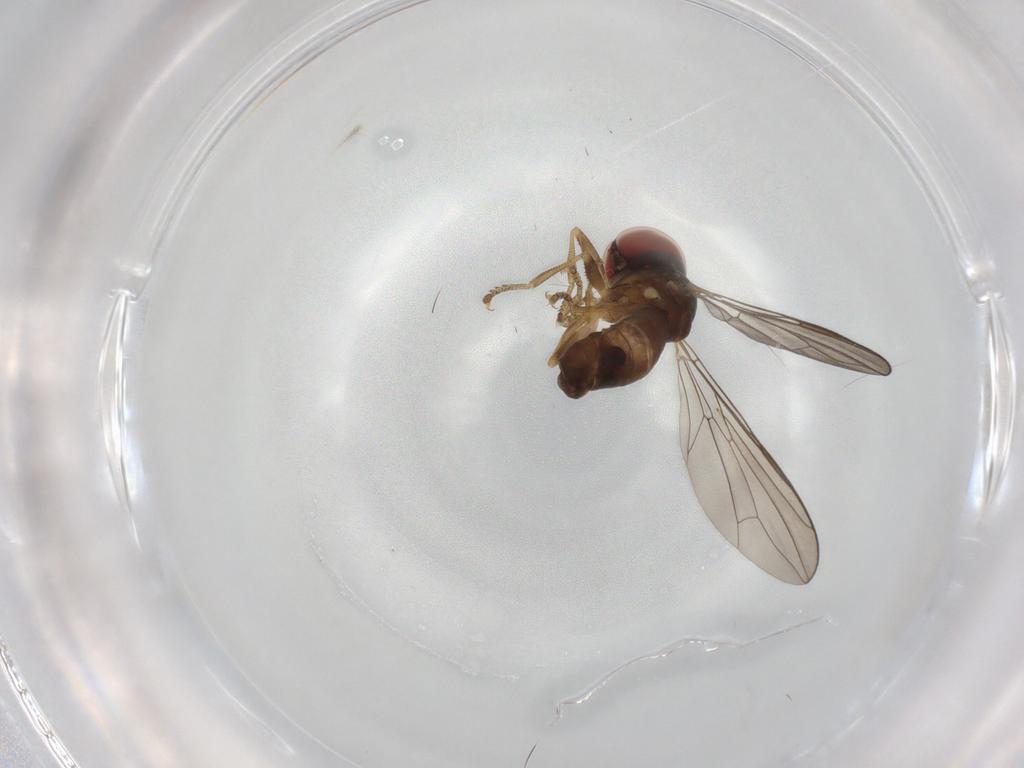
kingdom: Animalia
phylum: Arthropoda
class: Insecta
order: Diptera
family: Pipunculidae
